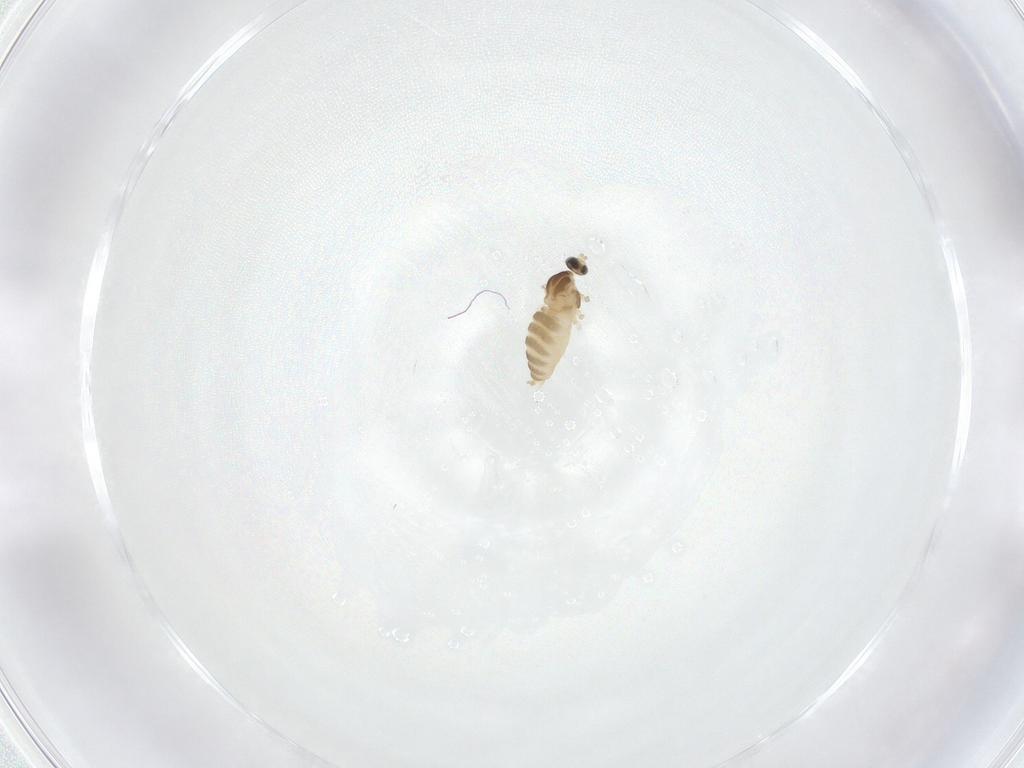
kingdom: Animalia
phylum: Arthropoda
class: Insecta
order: Diptera
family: Cecidomyiidae
